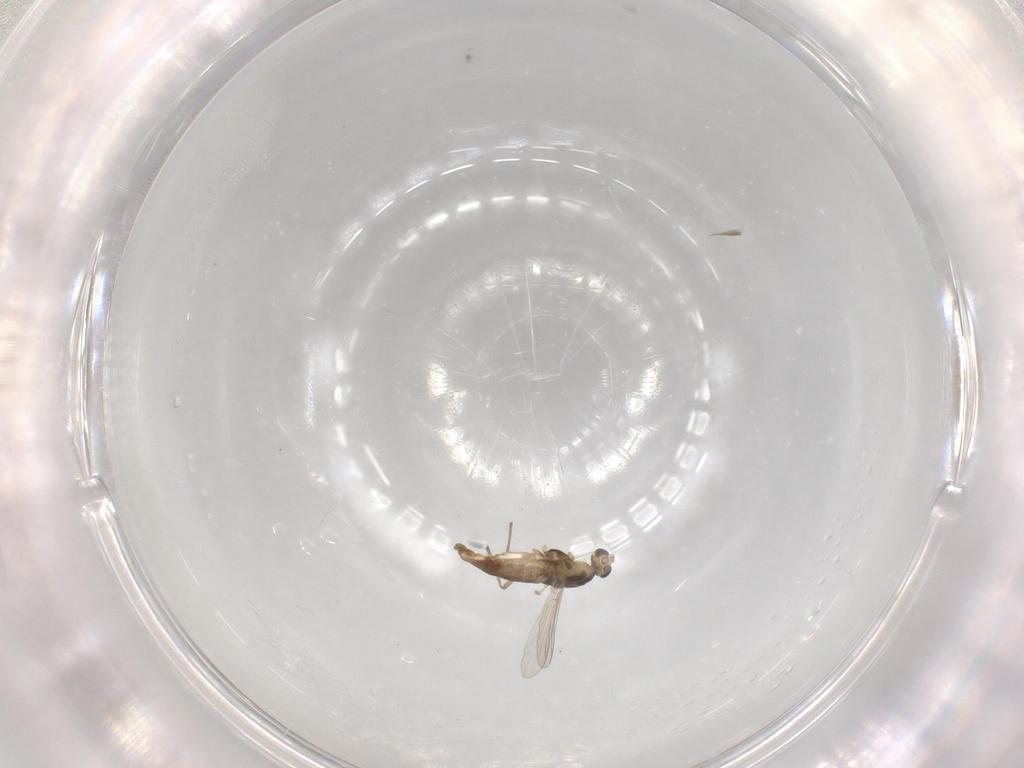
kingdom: Animalia
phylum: Arthropoda
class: Insecta
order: Diptera
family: Chironomidae
